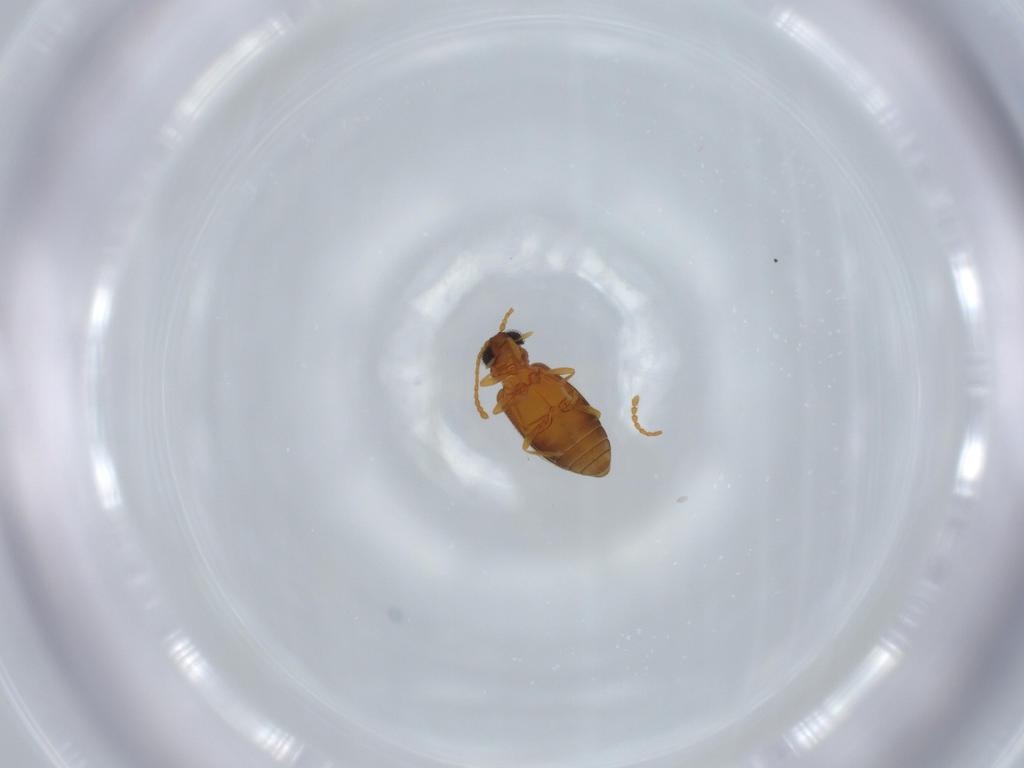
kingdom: Animalia
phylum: Arthropoda
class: Insecta
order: Coleoptera
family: Aderidae
